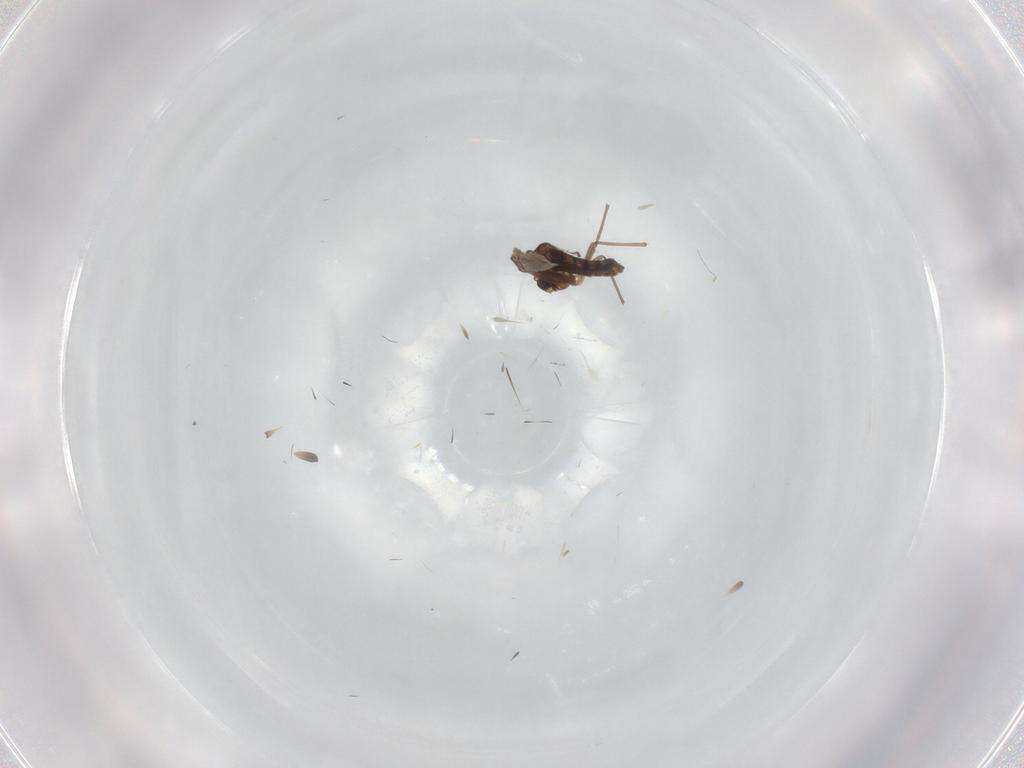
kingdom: Animalia
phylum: Arthropoda
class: Insecta
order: Diptera
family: Chironomidae
